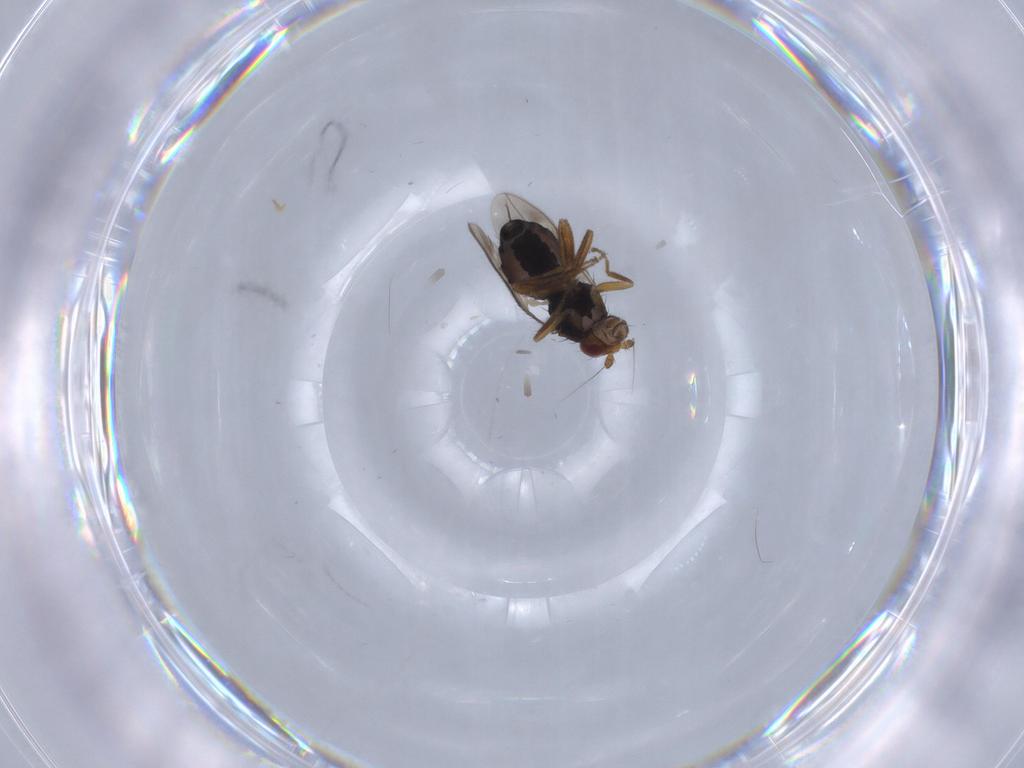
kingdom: Animalia
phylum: Arthropoda
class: Insecta
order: Diptera
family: Sphaeroceridae
